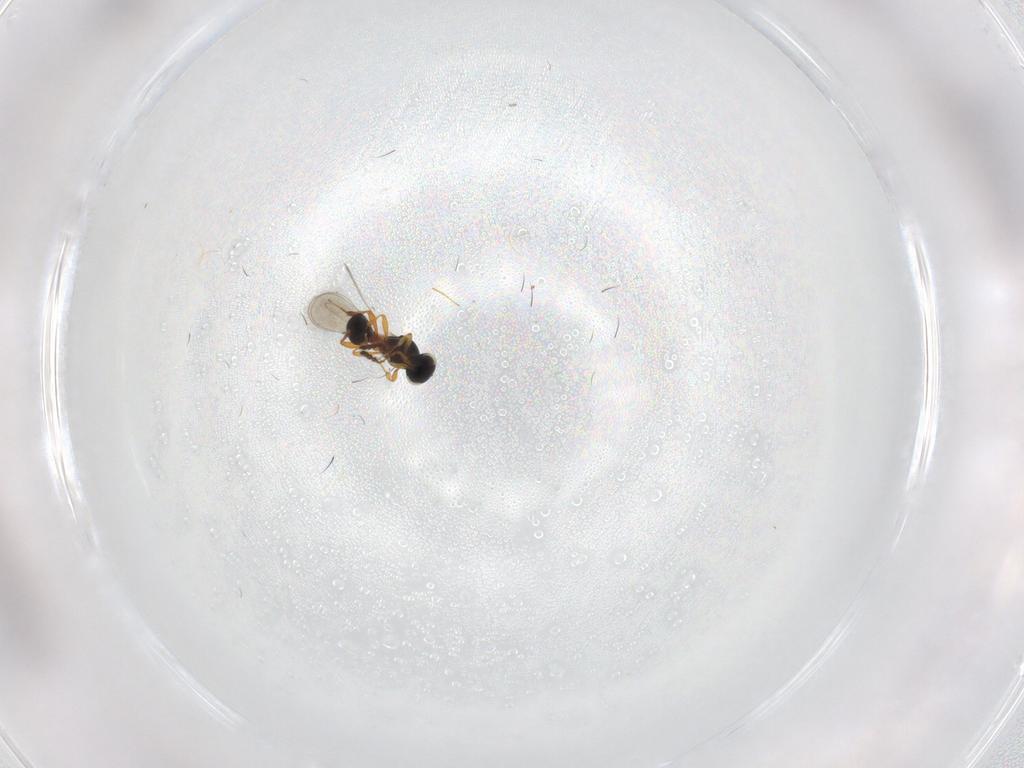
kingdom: Animalia
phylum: Arthropoda
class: Insecta
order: Hymenoptera
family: Platygastridae
